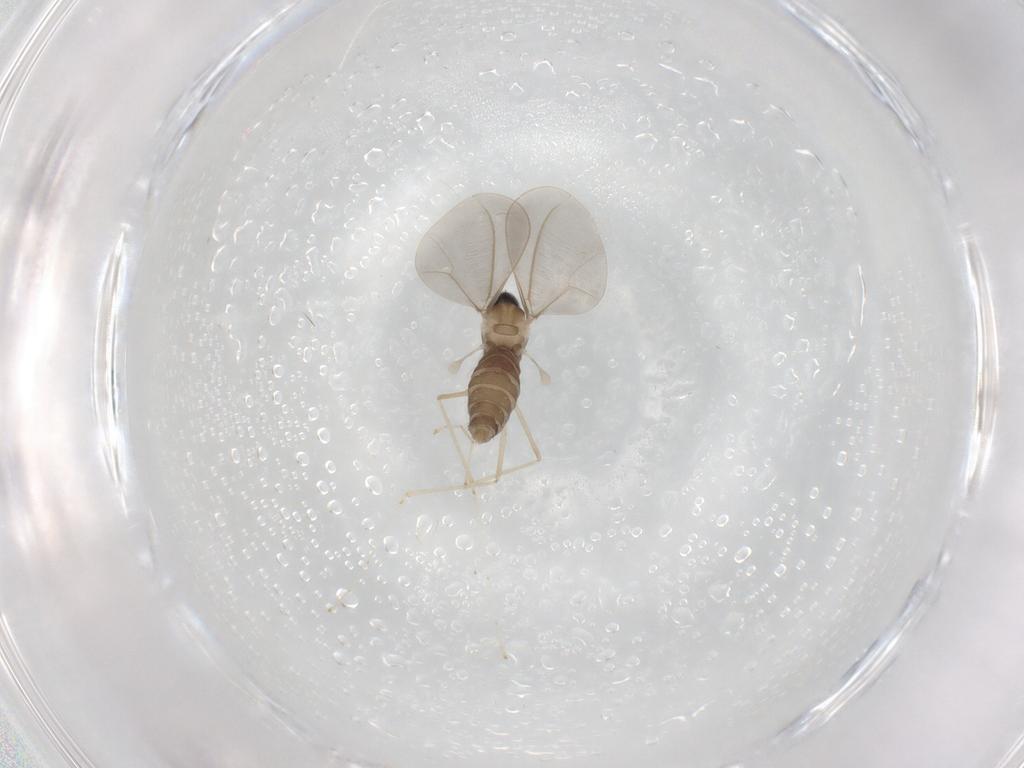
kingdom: Animalia
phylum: Arthropoda
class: Insecta
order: Diptera
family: Cecidomyiidae
